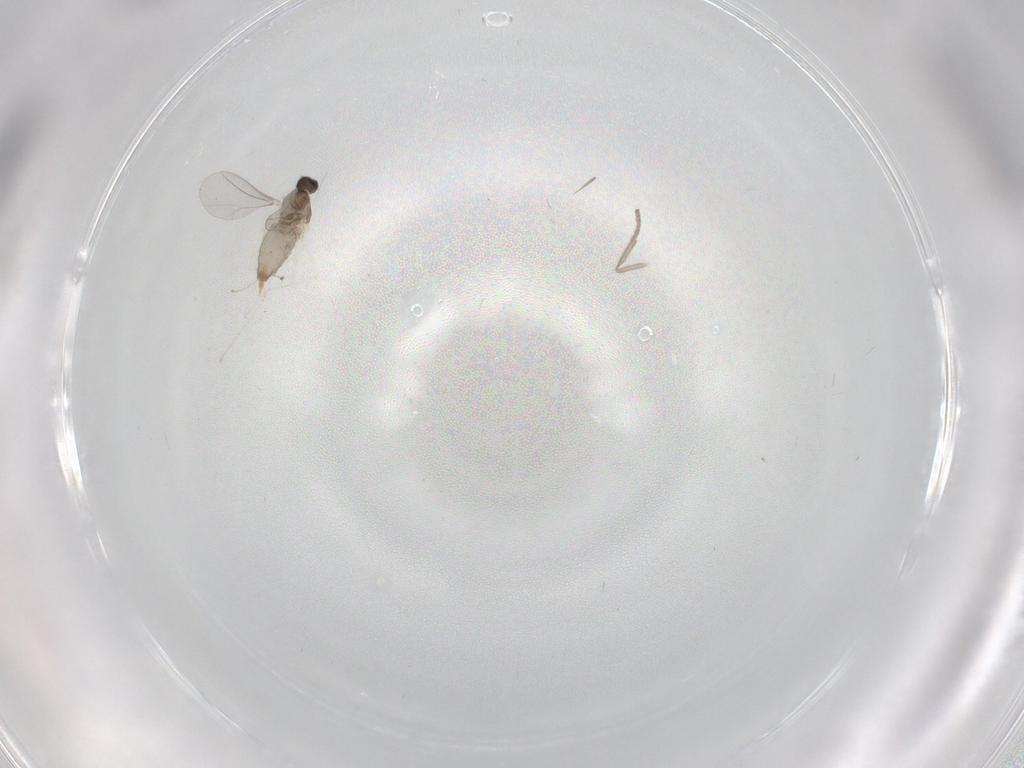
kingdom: Animalia
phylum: Arthropoda
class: Insecta
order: Diptera
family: Cecidomyiidae
